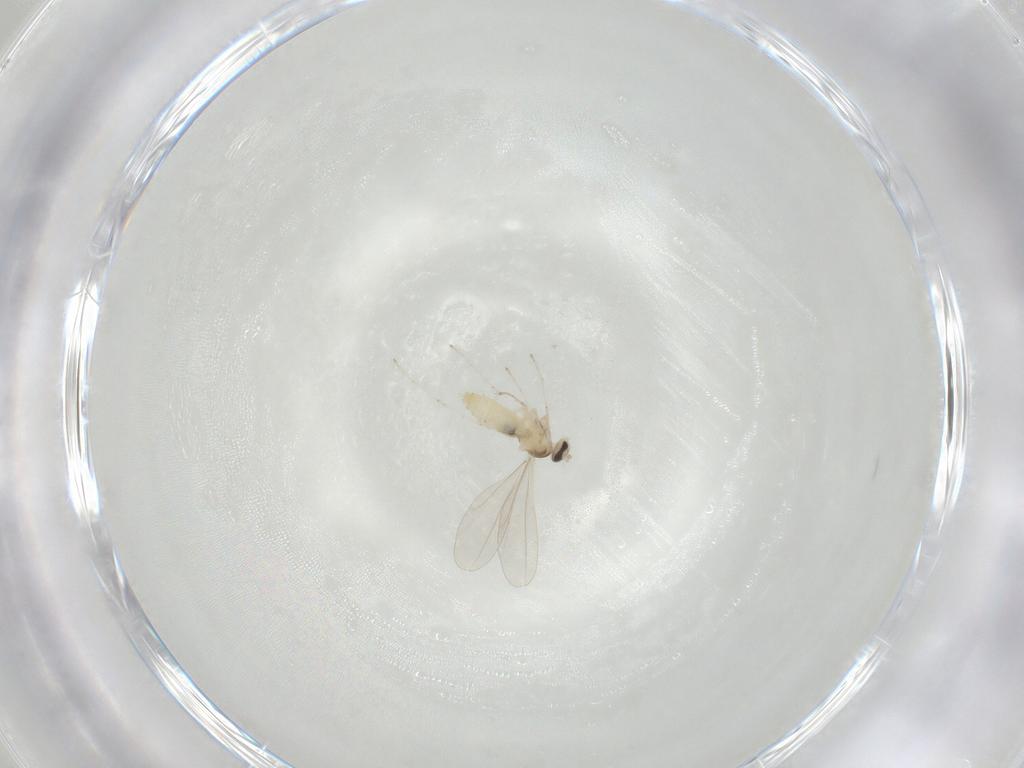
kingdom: Animalia
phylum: Arthropoda
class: Insecta
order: Diptera
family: Cecidomyiidae
